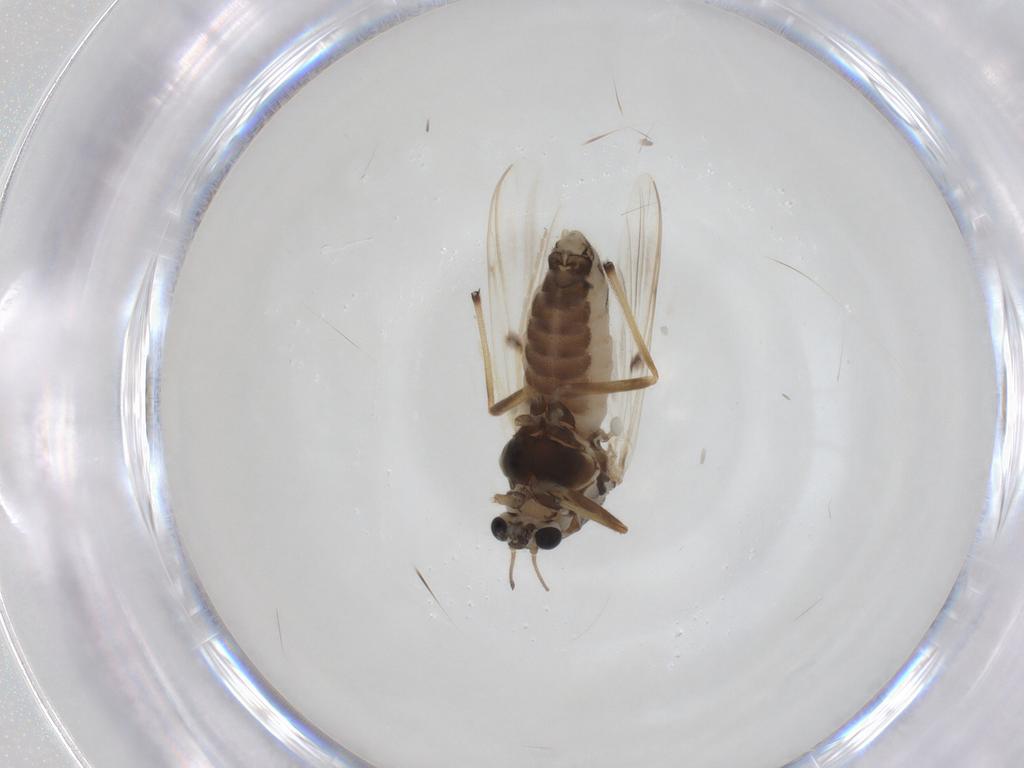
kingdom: Animalia
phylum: Arthropoda
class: Insecta
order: Diptera
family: Chironomidae
